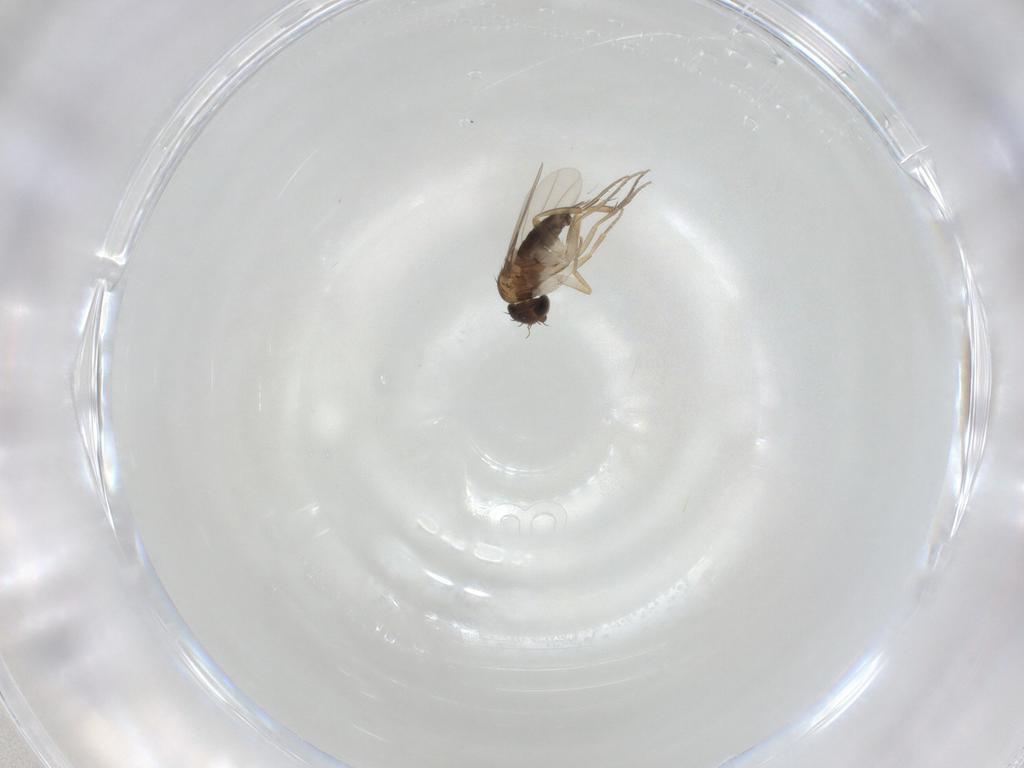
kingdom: Animalia
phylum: Arthropoda
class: Insecta
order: Diptera
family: Phoridae
